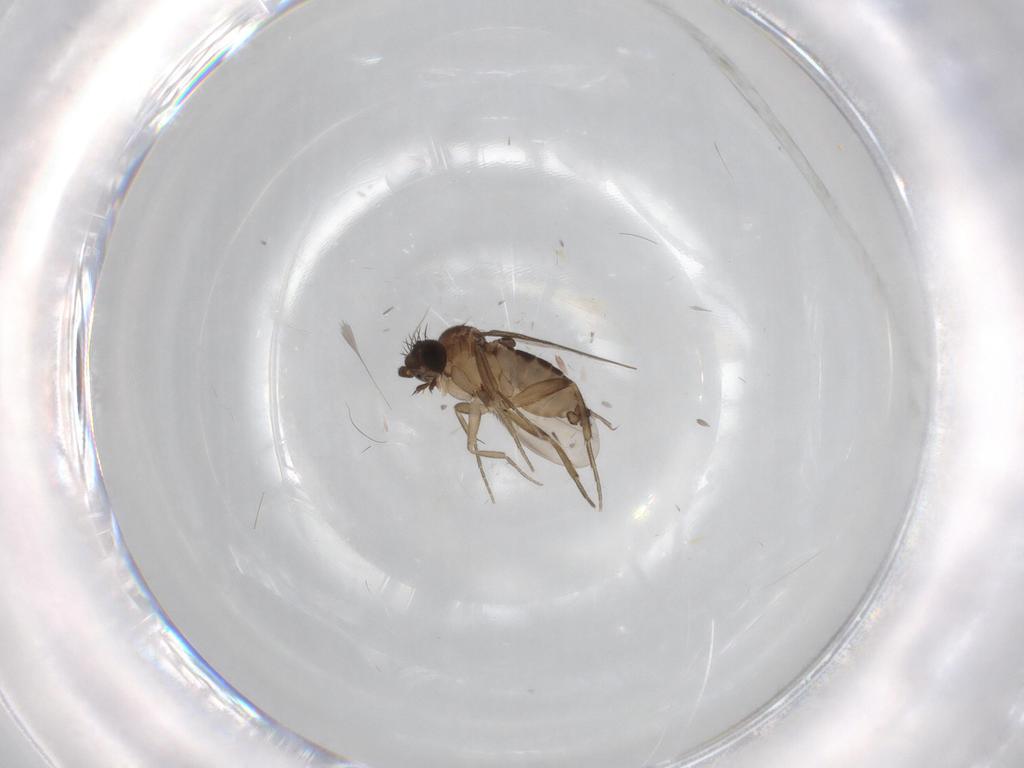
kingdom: Animalia
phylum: Arthropoda
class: Insecta
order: Diptera
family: Phoridae
